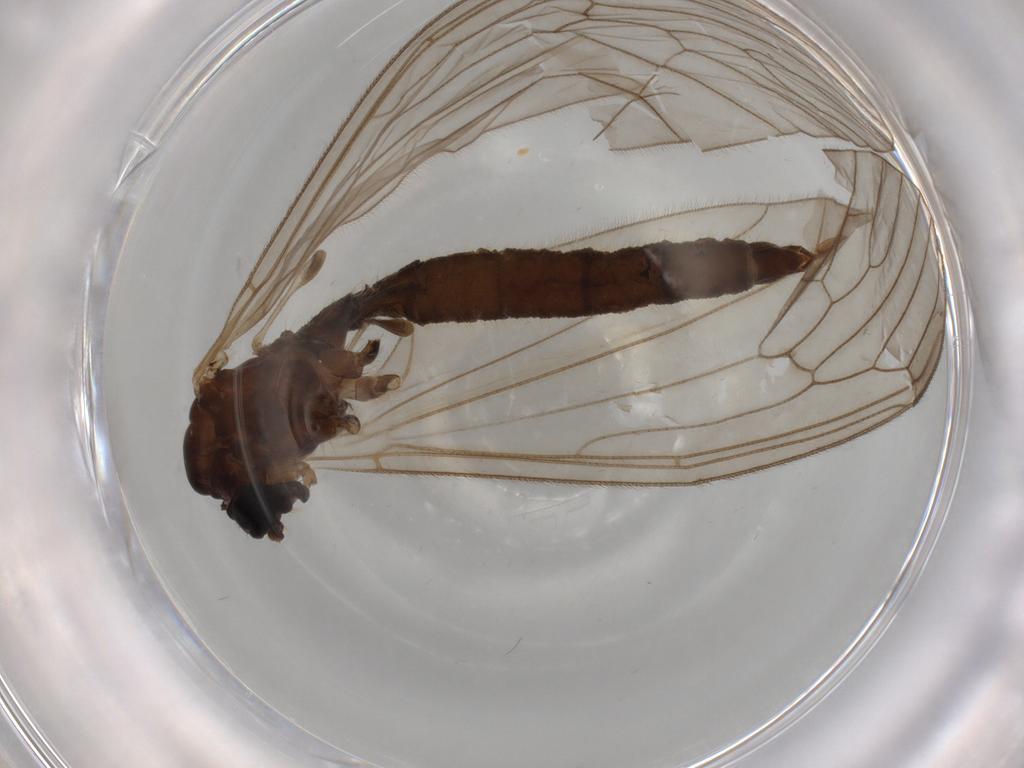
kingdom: Animalia
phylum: Arthropoda
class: Insecta
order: Diptera
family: Trichoceridae
